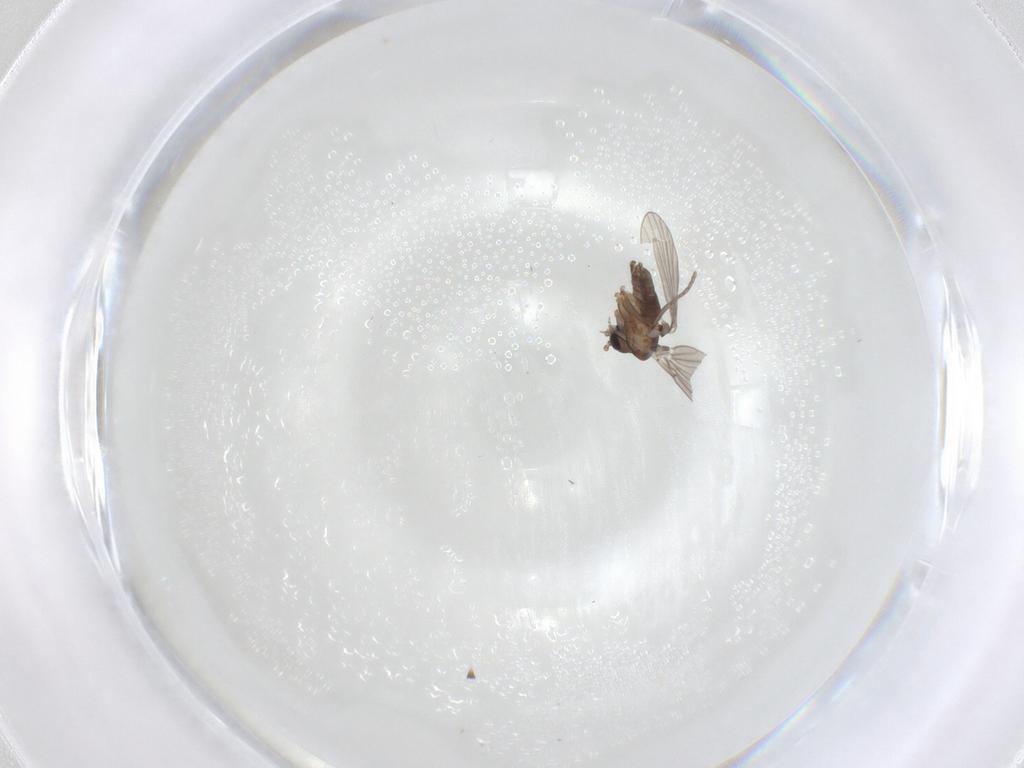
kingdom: Animalia
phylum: Arthropoda
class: Insecta
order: Diptera
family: Psychodidae
